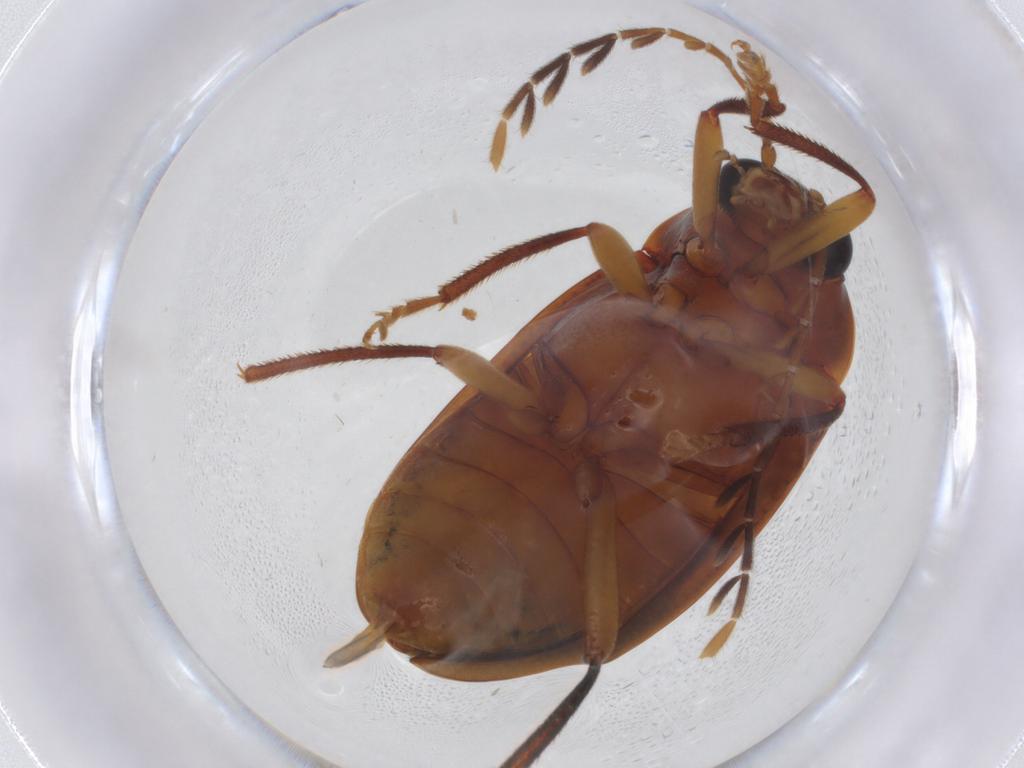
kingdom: Animalia
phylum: Arthropoda
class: Insecta
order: Coleoptera
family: Ptilodactylidae
